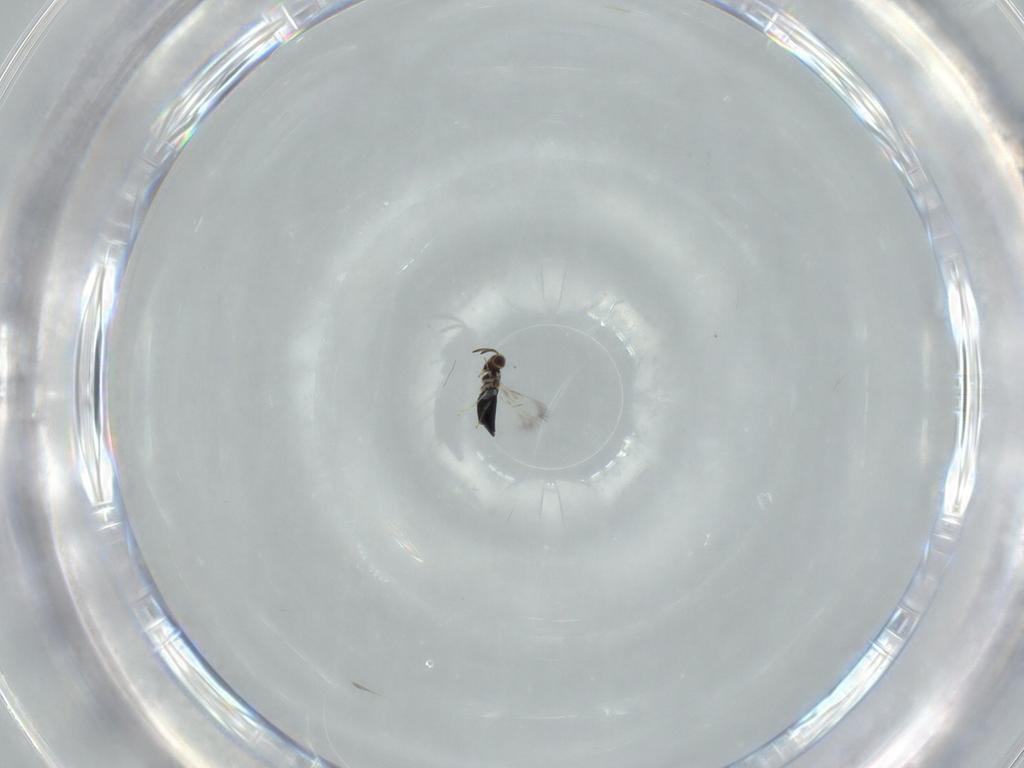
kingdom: Animalia
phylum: Arthropoda
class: Insecta
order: Hymenoptera
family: Signiphoridae
